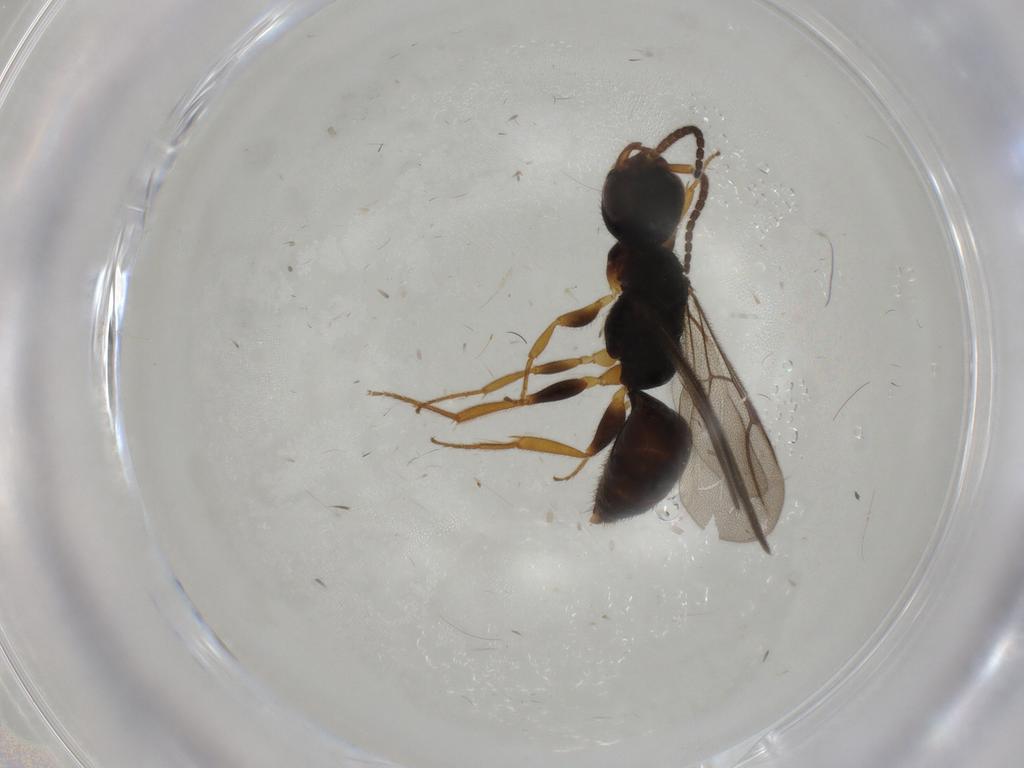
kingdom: Animalia
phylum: Arthropoda
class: Insecta
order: Hymenoptera
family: Bethylidae
